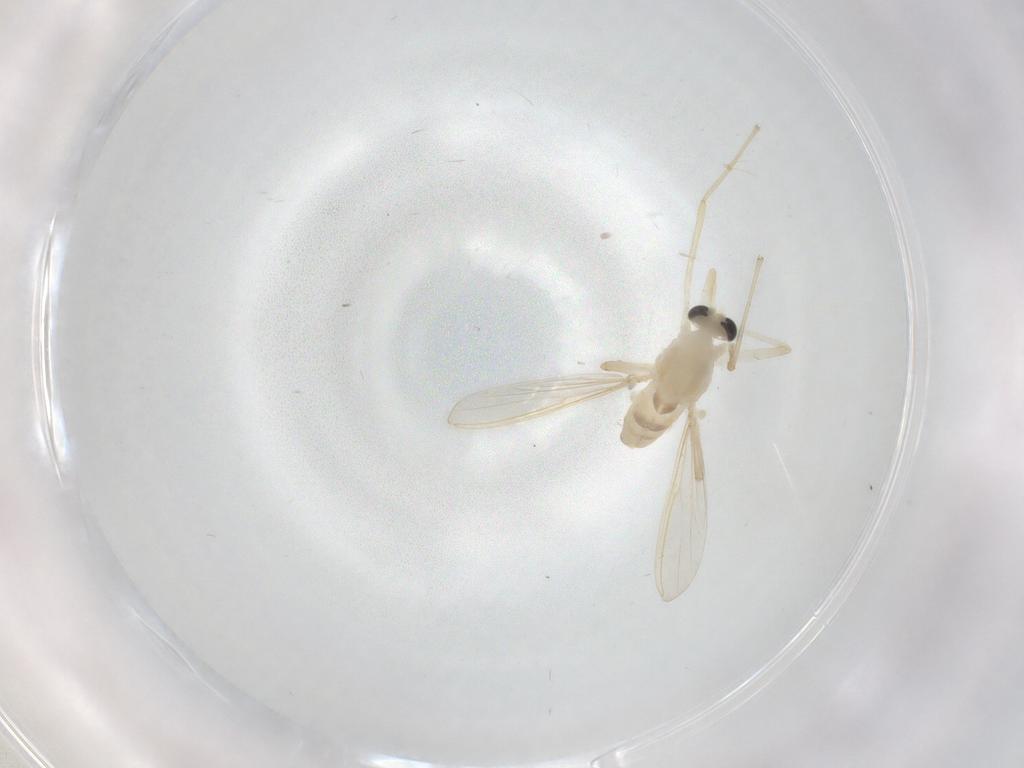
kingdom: Animalia
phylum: Arthropoda
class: Insecta
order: Diptera
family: Chironomidae
